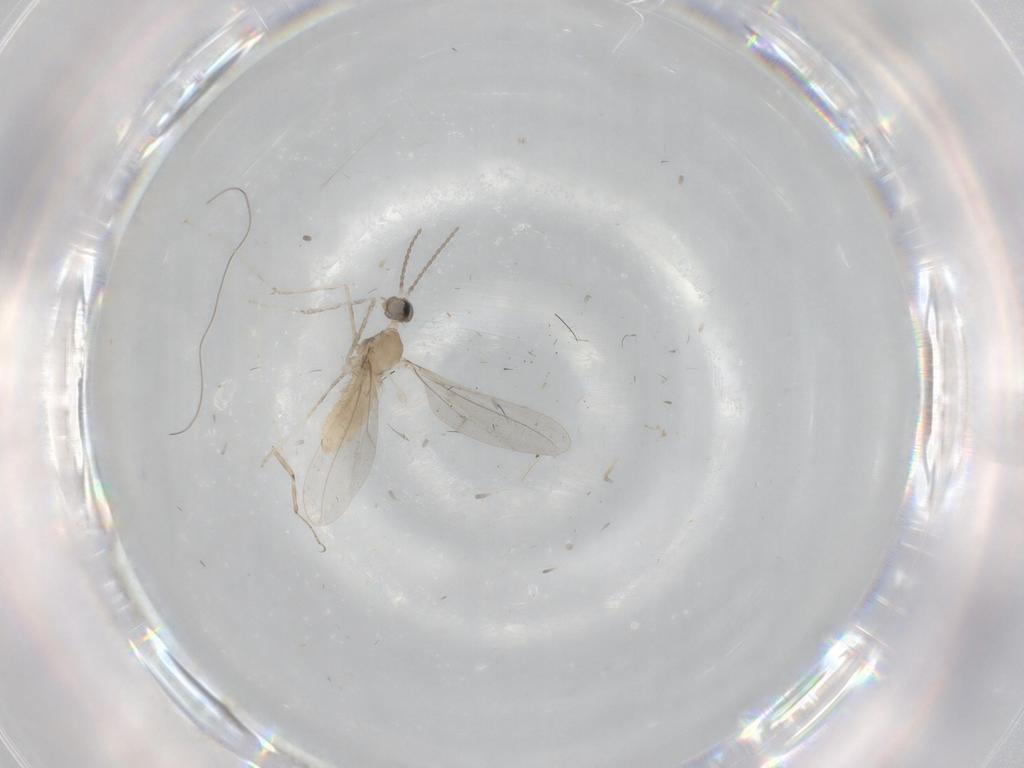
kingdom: Animalia
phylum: Arthropoda
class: Insecta
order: Diptera
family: Cecidomyiidae
